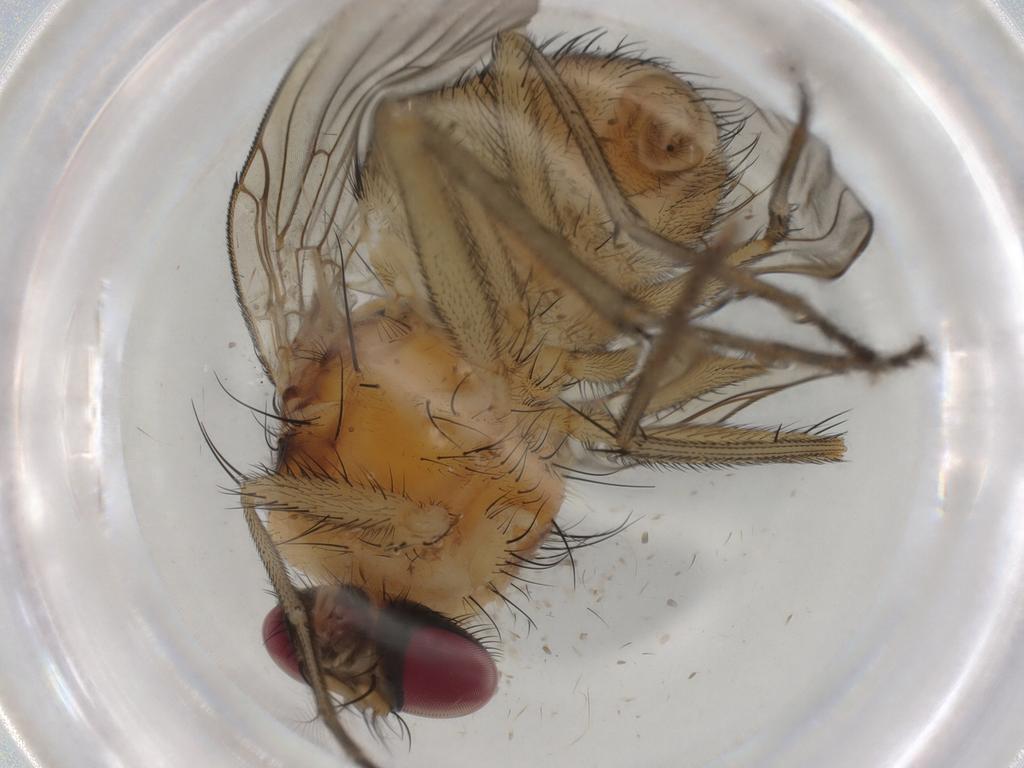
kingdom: Animalia
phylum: Arthropoda
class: Insecta
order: Diptera
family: Muscidae
